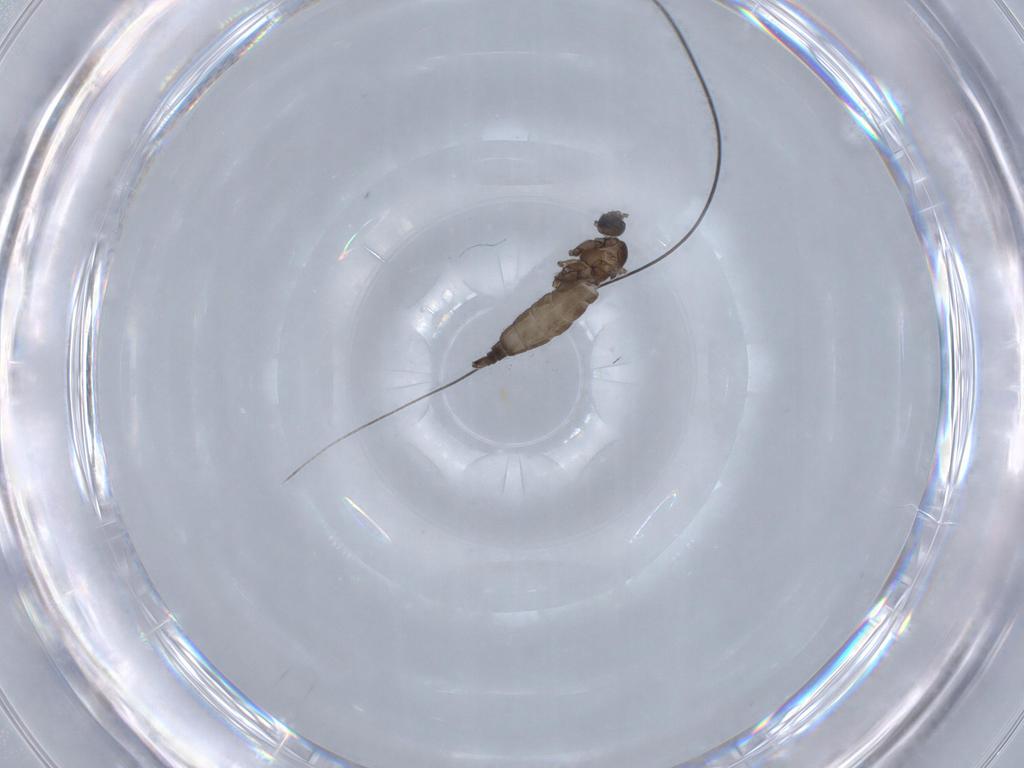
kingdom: Animalia
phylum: Arthropoda
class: Insecta
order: Diptera
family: Sciaridae
